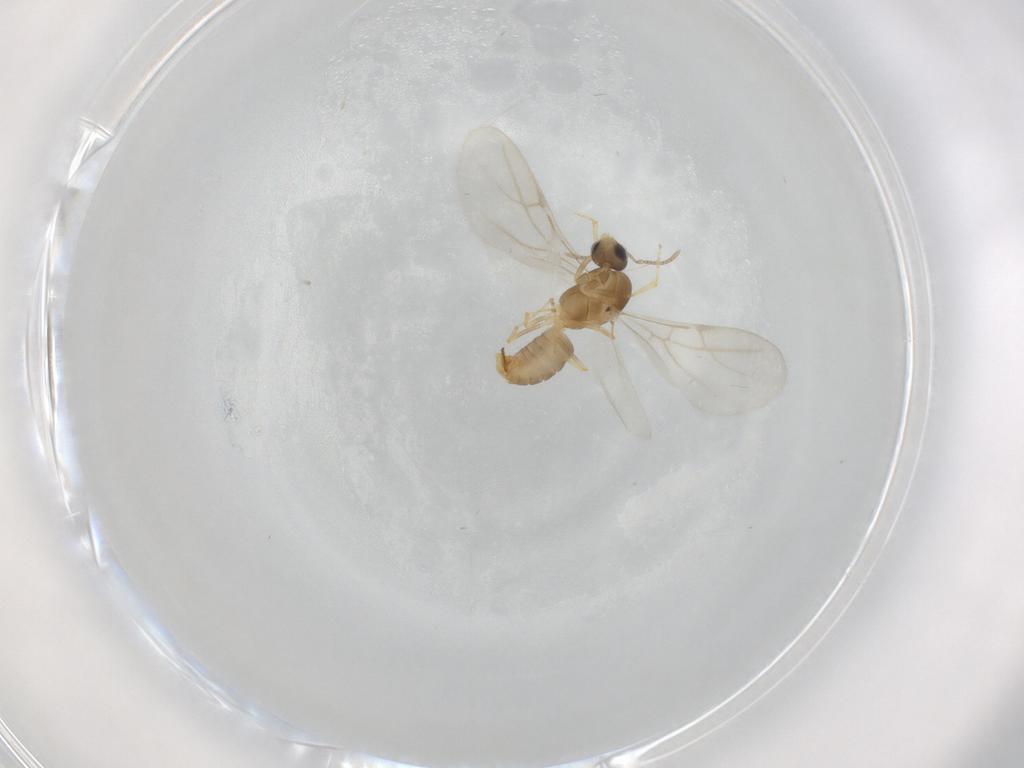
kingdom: Animalia
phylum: Arthropoda
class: Insecta
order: Hymenoptera
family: Formicidae
